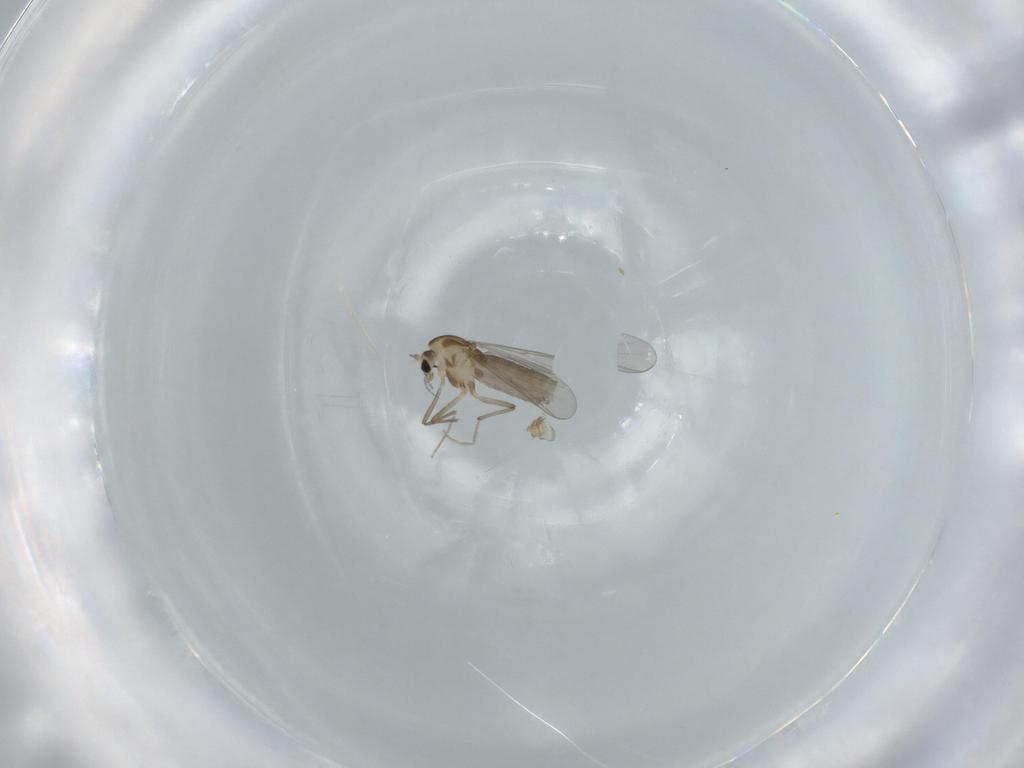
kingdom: Animalia
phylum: Arthropoda
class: Insecta
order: Diptera
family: Chironomidae
